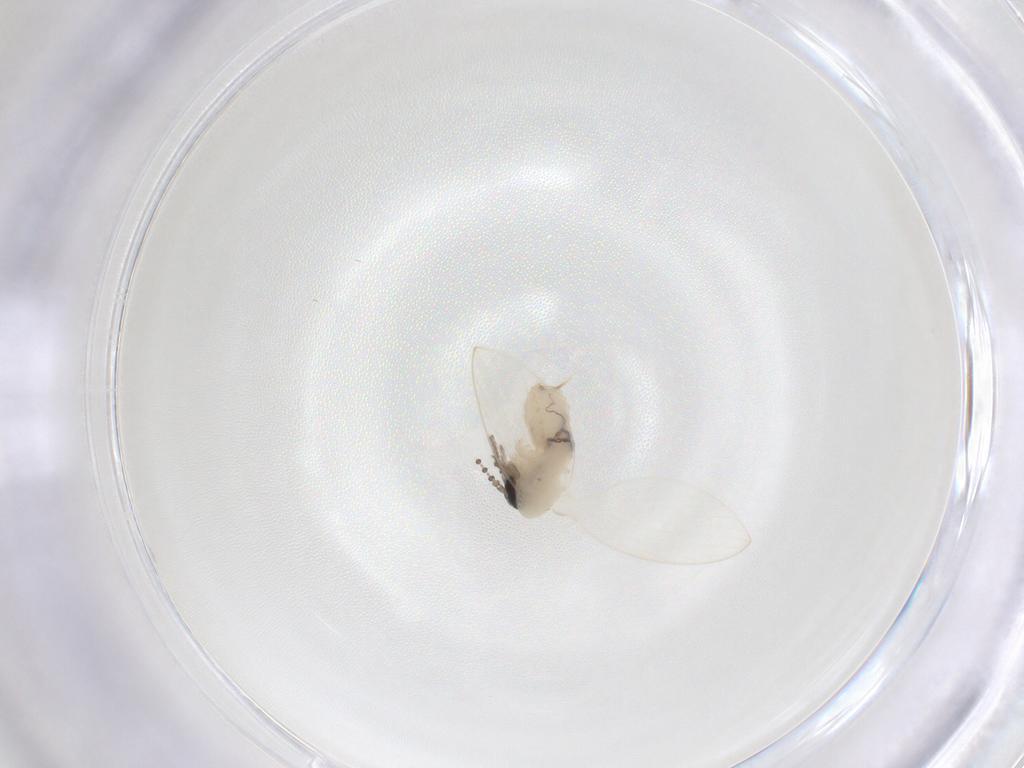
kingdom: Animalia
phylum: Arthropoda
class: Insecta
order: Diptera
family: Psychodidae
